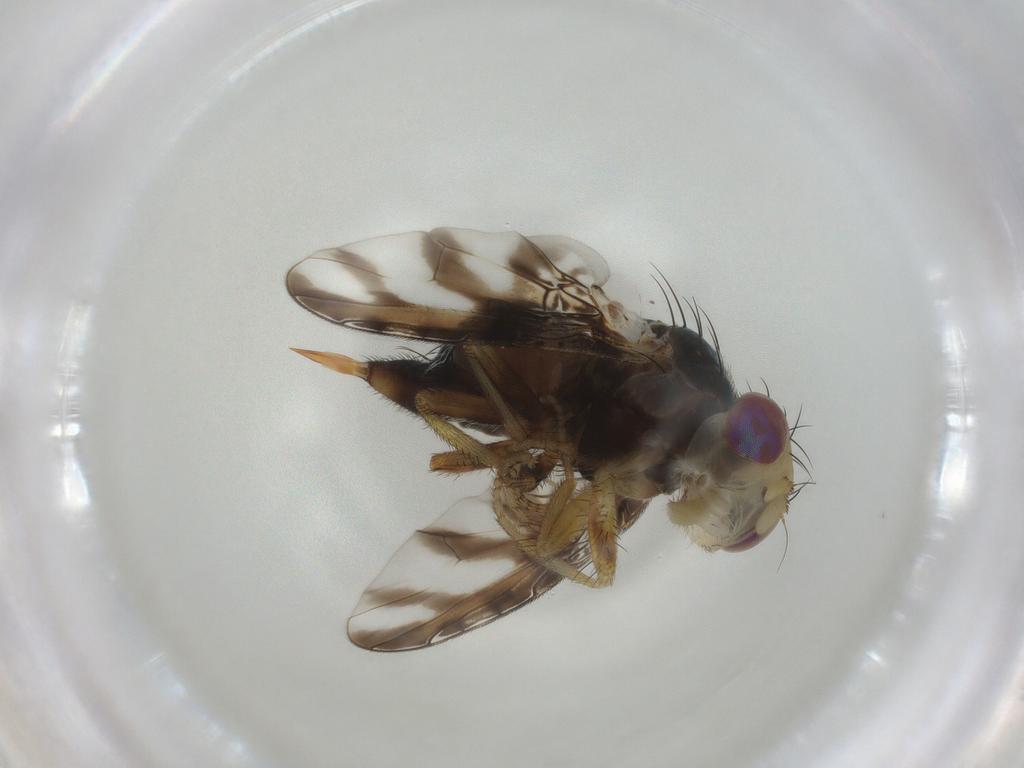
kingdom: Animalia
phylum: Arthropoda
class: Insecta
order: Diptera
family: Tephritidae
